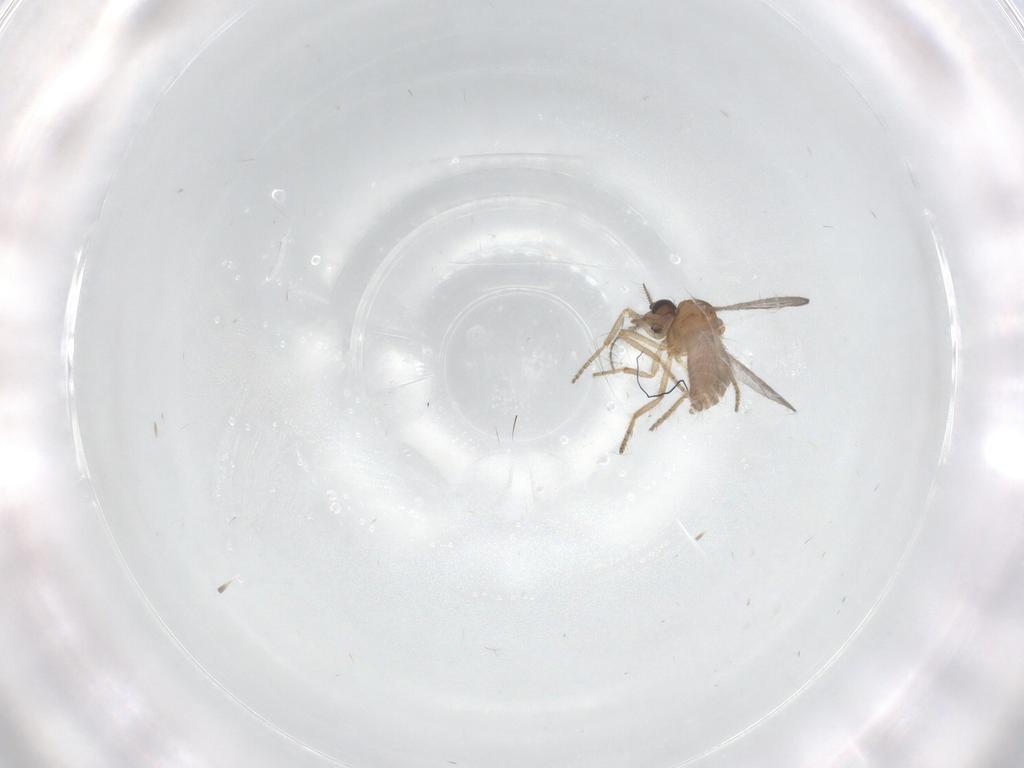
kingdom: Animalia
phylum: Arthropoda
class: Insecta
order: Diptera
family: Ceratopogonidae
